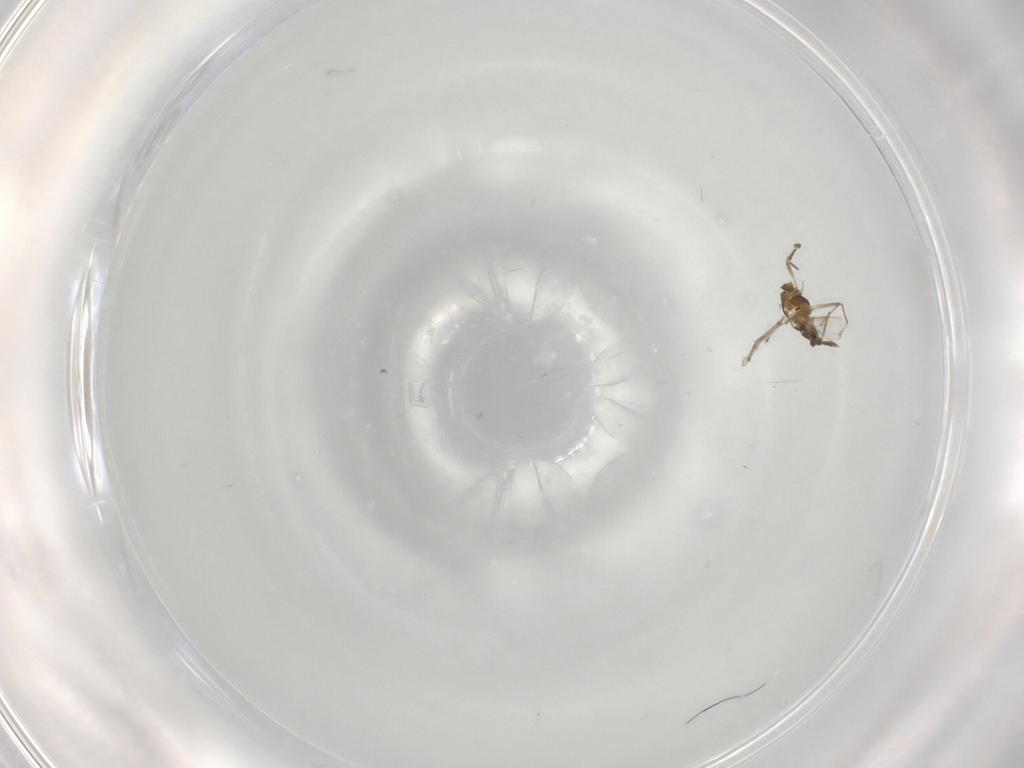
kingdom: Animalia
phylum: Arthropoda
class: Insecta
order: Diptera
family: Chironomidae
